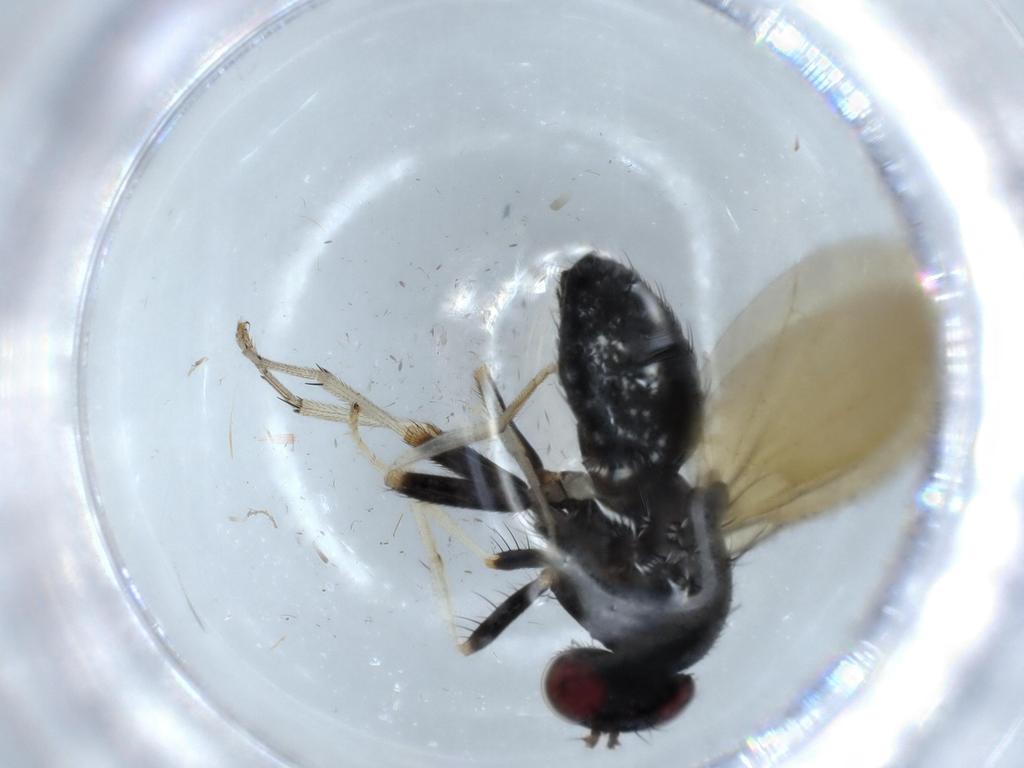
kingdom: Animalia
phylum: Arthropoda
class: Insecta
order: Diptera
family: Chironomidae
